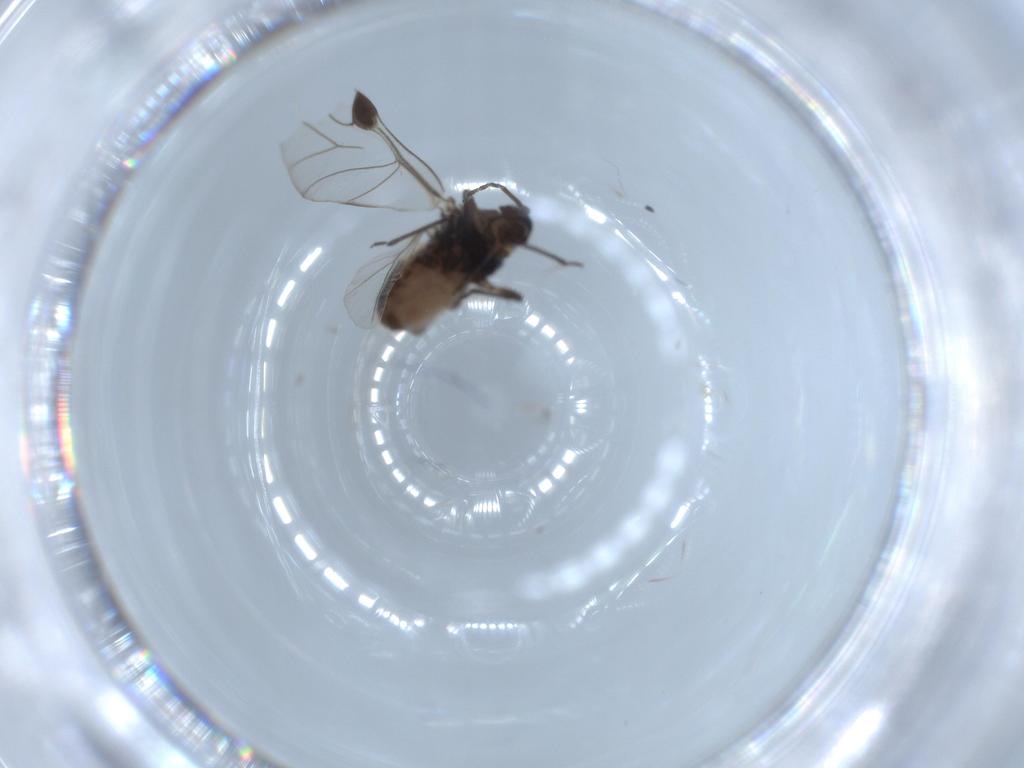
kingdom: Animalia
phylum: Arthropoda
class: Insecta
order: Hemiptera
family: Aphididae
